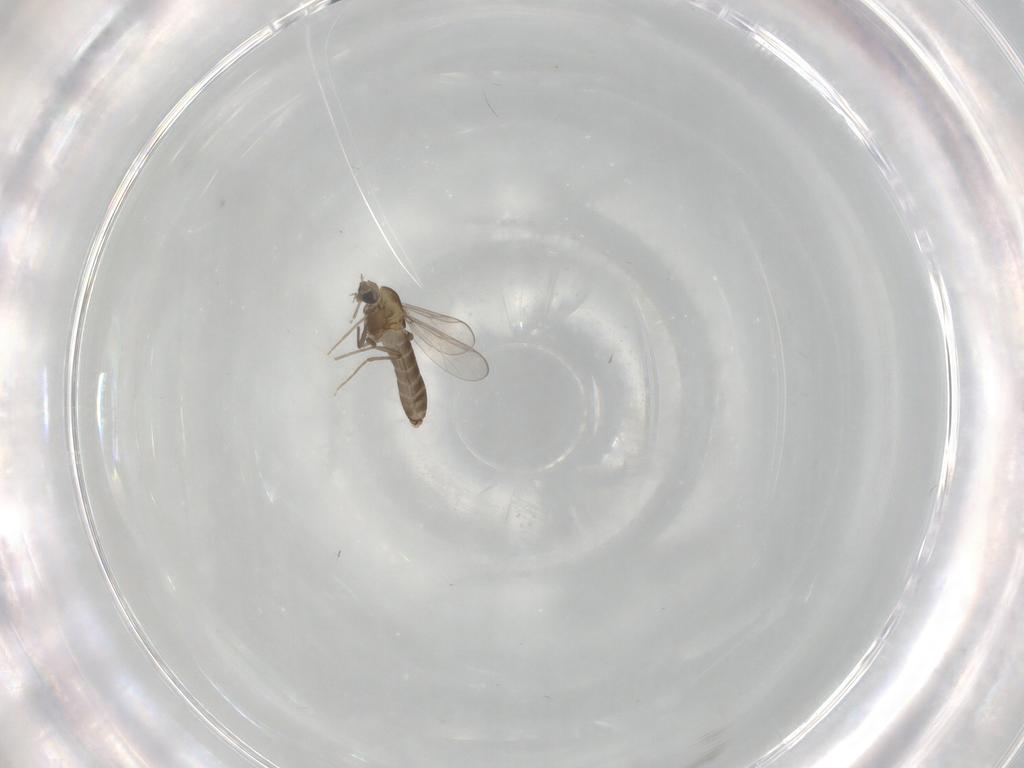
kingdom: Animalia
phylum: Arthropoda
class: Insecta
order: Diptera
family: Chironomidae
